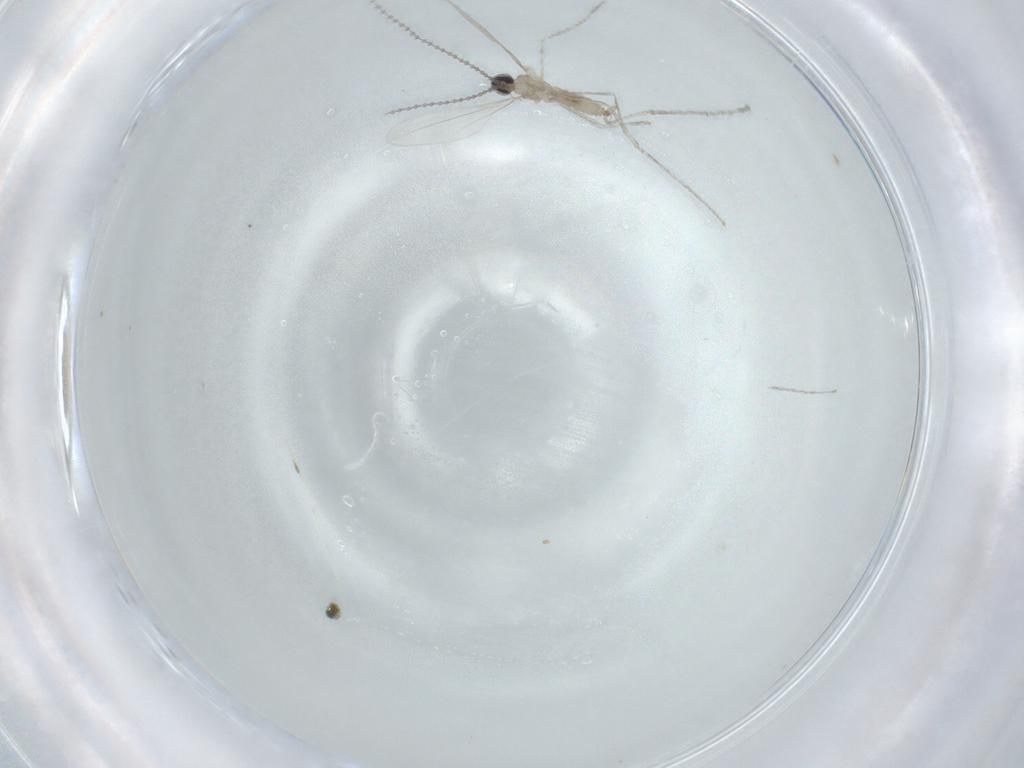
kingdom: Animalia
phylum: Arthropoda
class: Insecta
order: Diptera
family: Cecidomyiidae
